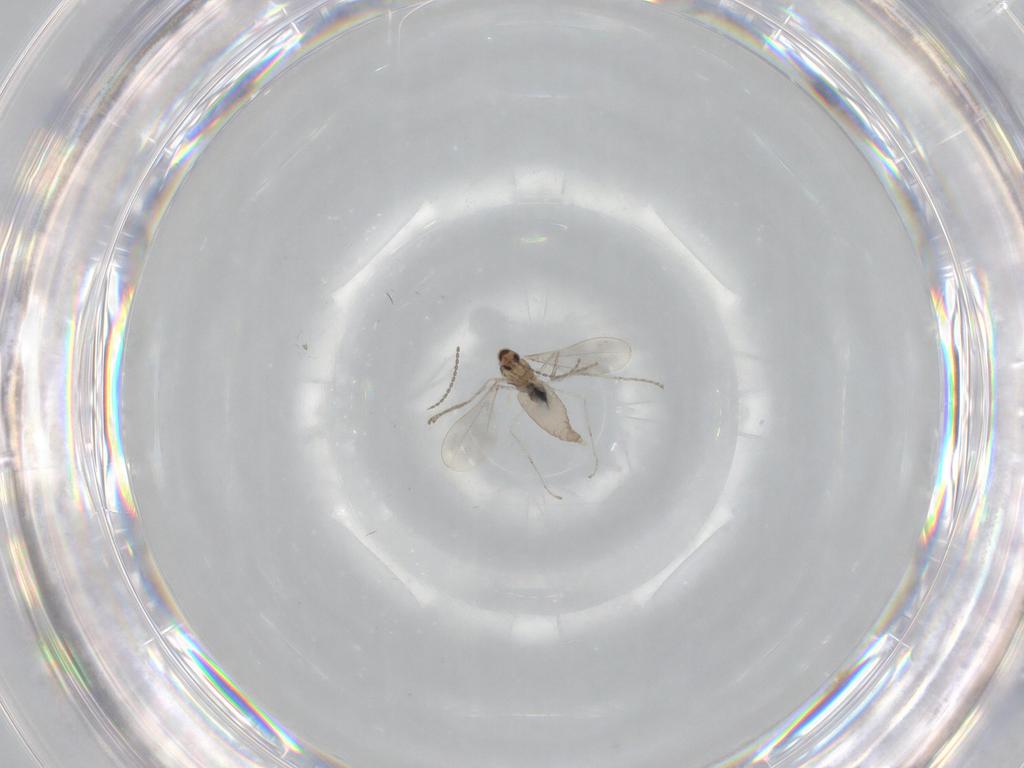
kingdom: Animalia
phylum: Arthropoda
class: Insecta
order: Diptera
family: Cecidomyiidae
